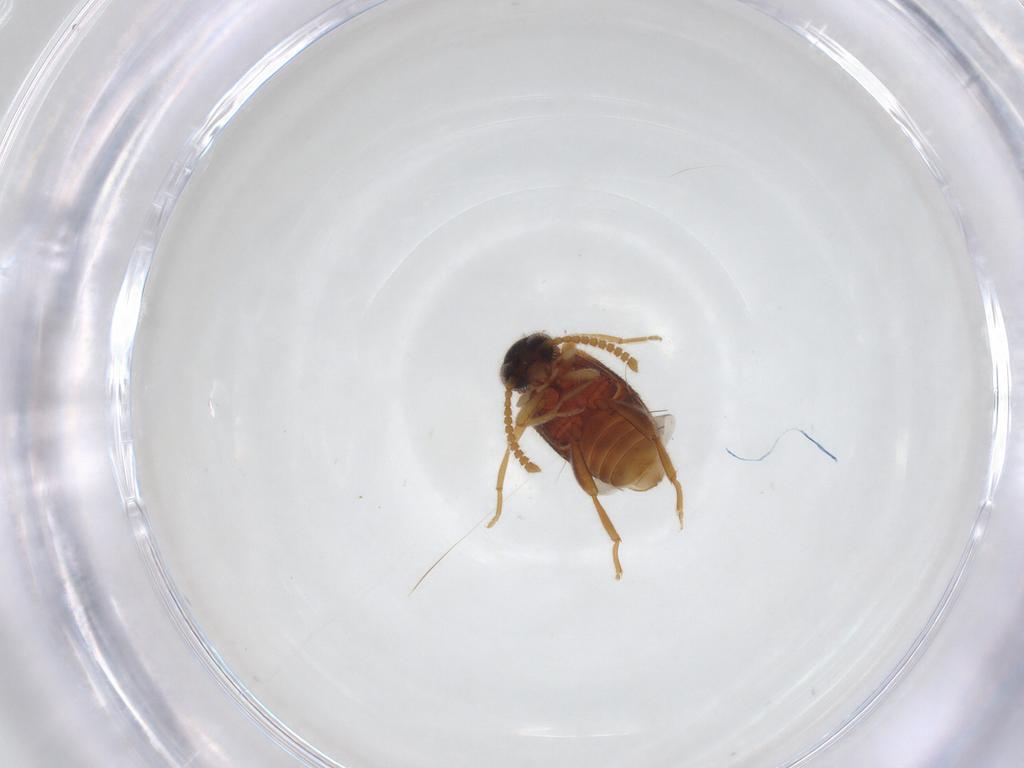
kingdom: Animalia
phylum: Arthropoda
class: Insecta
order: Coleoptera
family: Aderidae
